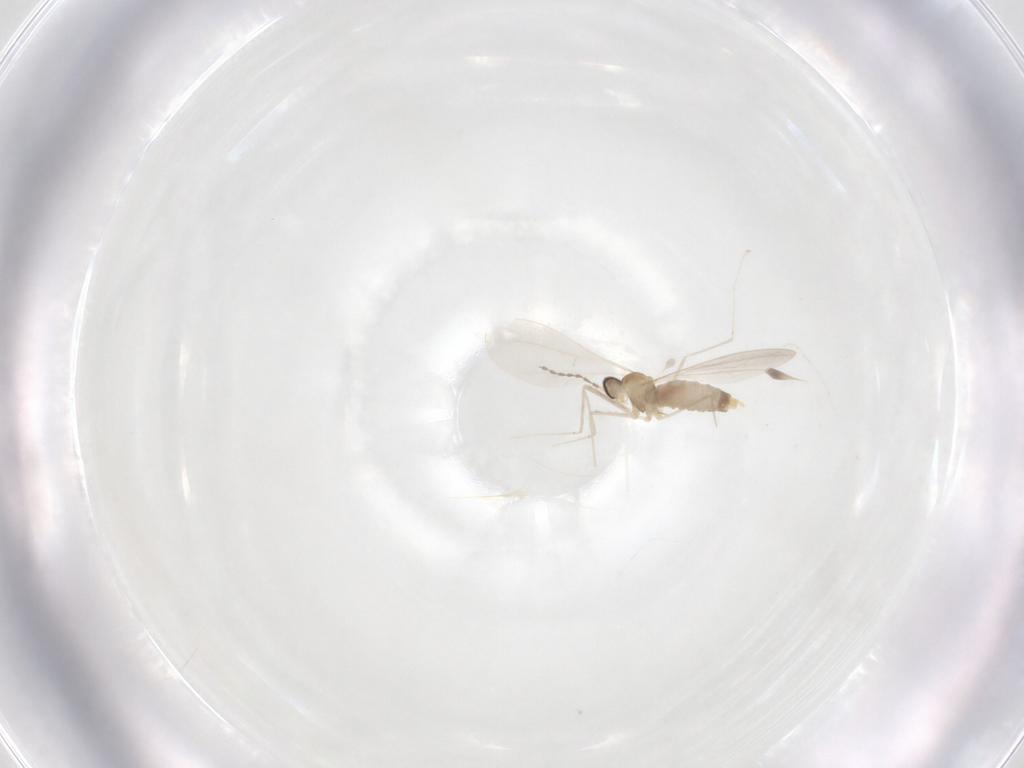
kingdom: Animalia
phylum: Arthropoda
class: Insecta
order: Diptera
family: Cecidomyiidae
